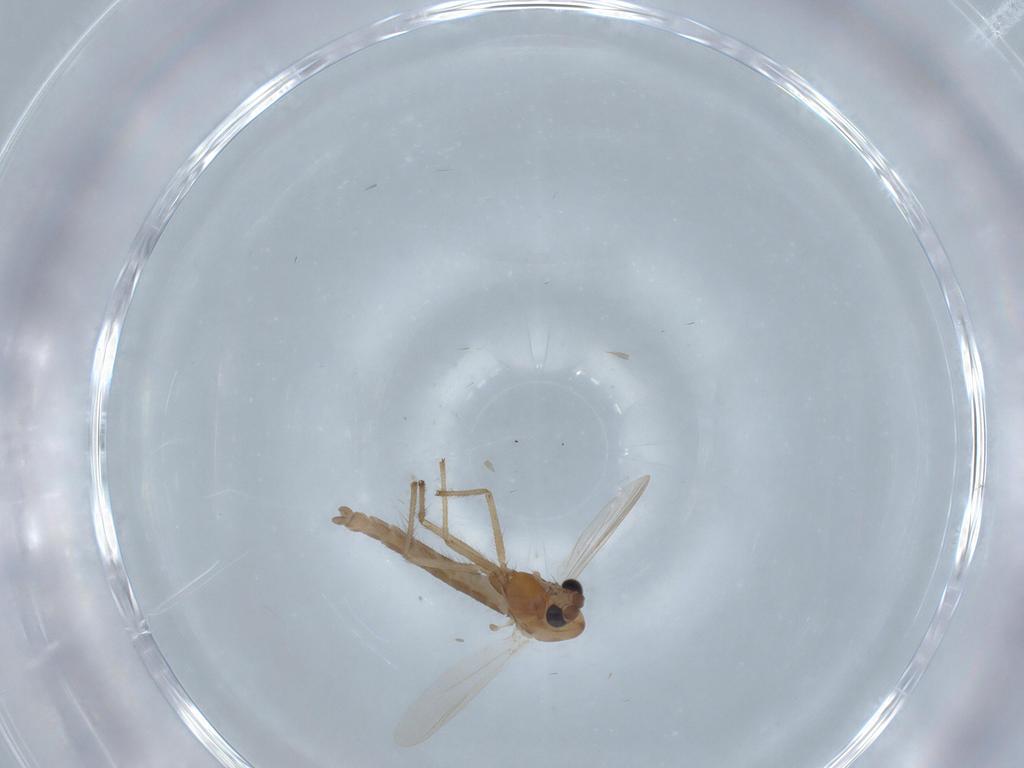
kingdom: Animalia
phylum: Arthropoda
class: Insecta
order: Diptera
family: Chironomidae
